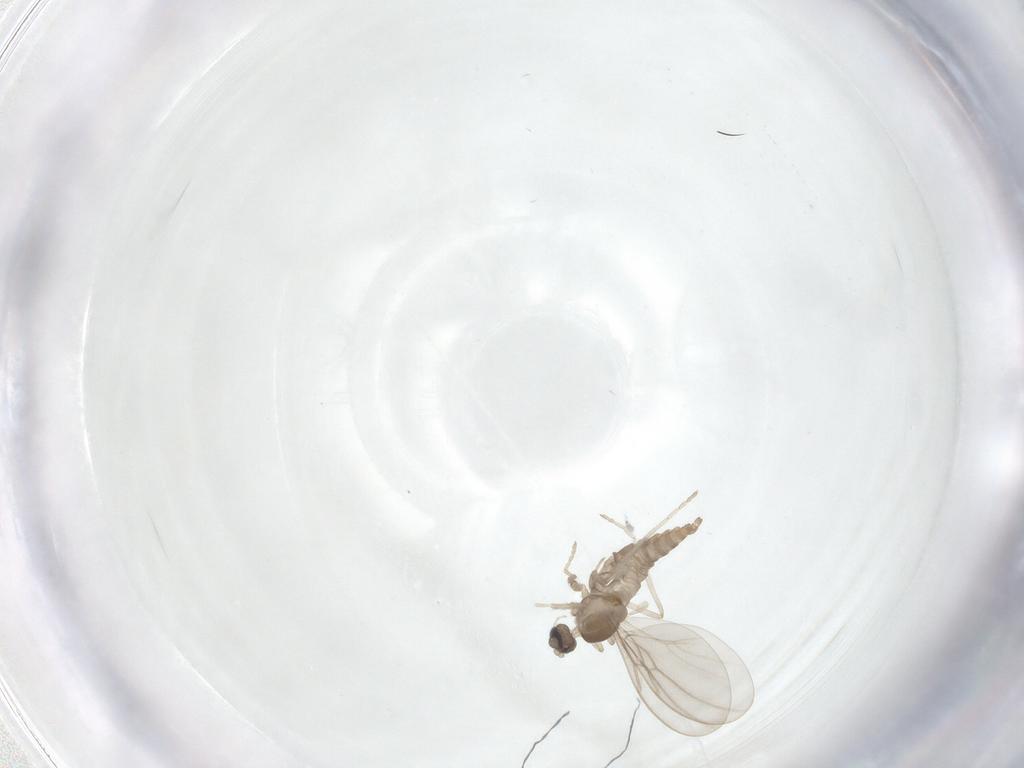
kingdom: Animalia
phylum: Arthropoda
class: Insecta
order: Diptera
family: Cecidomyiidae
